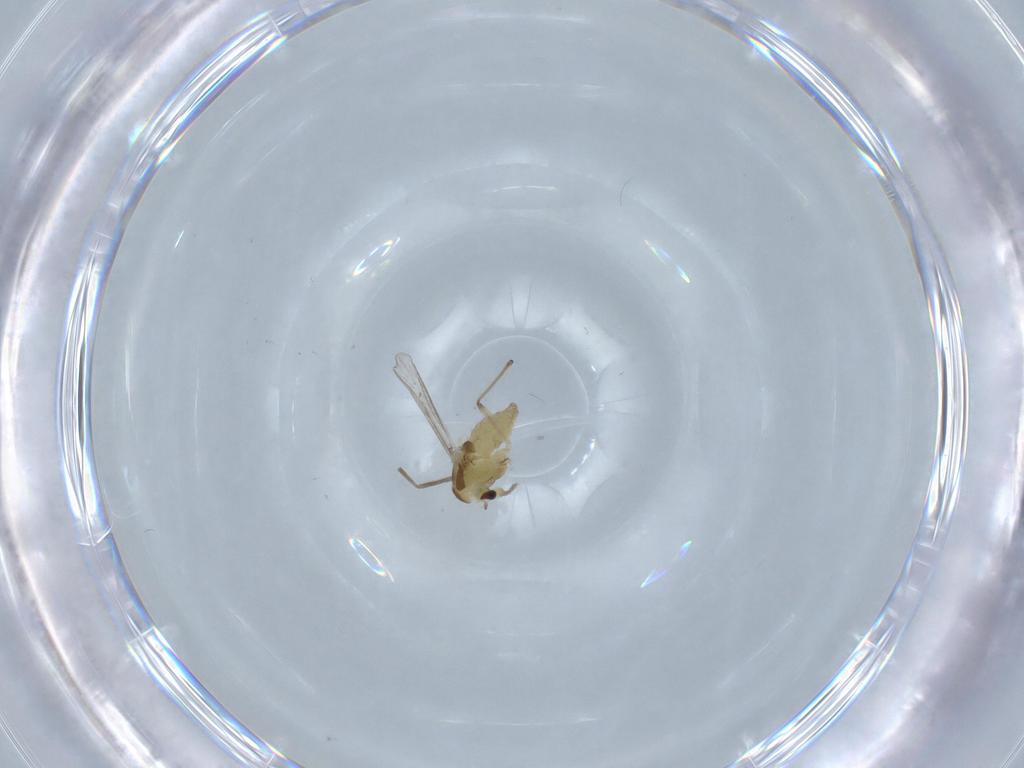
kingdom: Animalia
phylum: Arthropoda
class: Insecta
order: Diptera
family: Chironomidae
